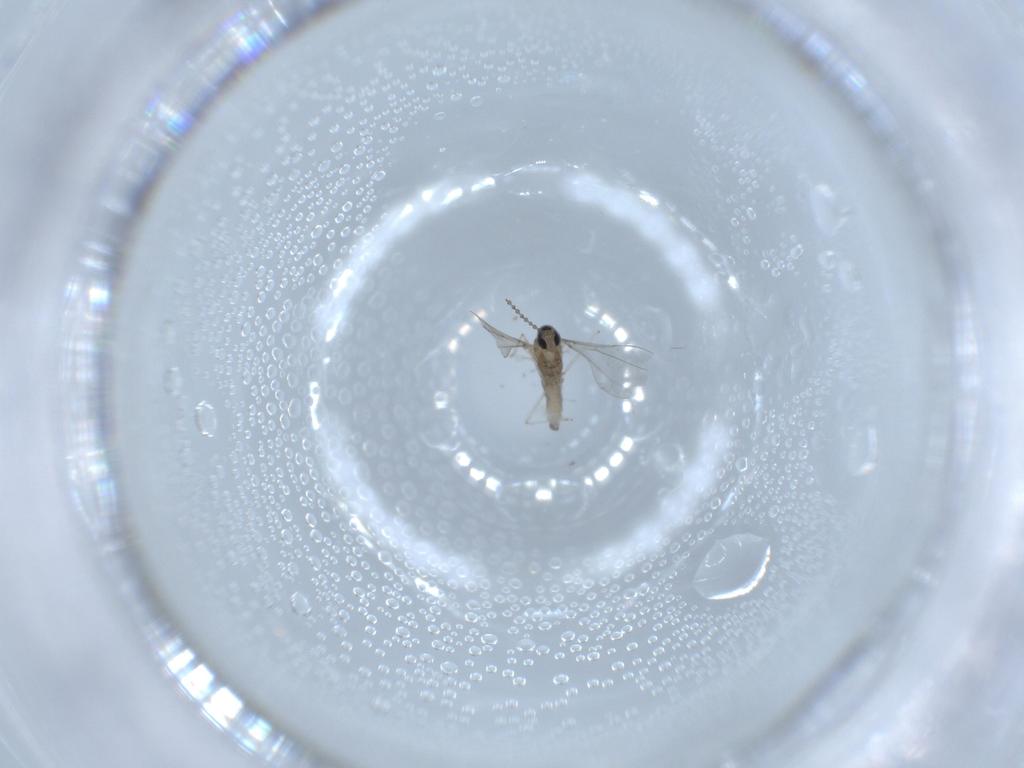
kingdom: Animalia
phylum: Arthropoda
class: Insecta
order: Diptera
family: Cecidomyiidae
